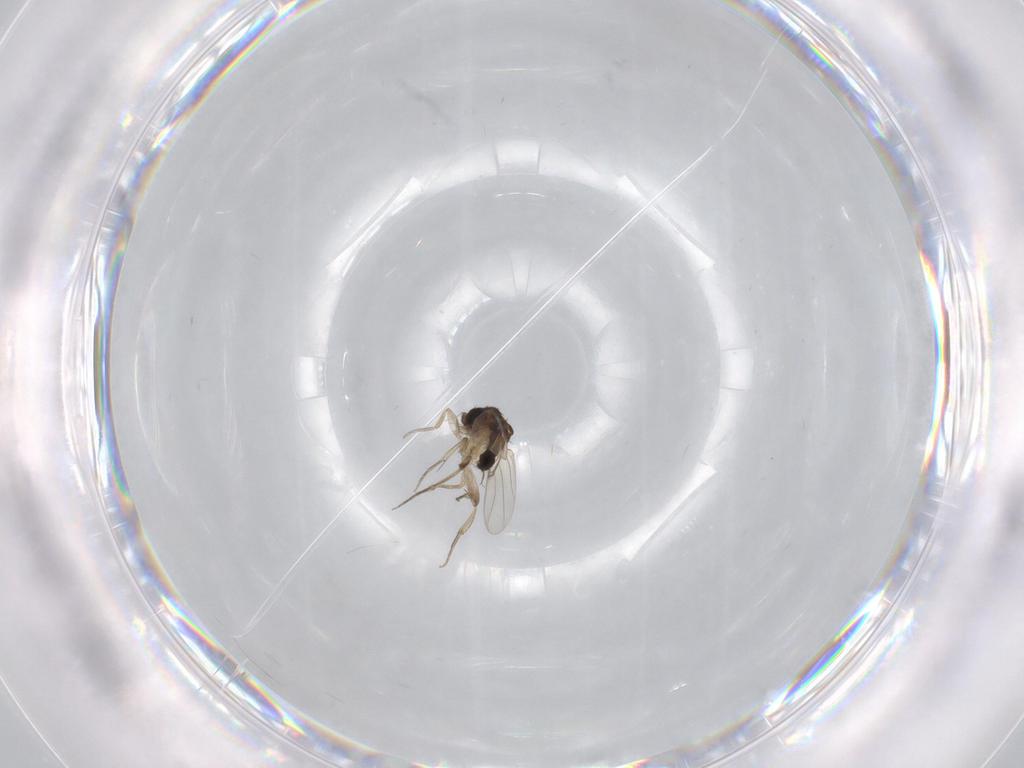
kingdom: Animalia
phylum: Arthropoda
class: Insecta
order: Diptera
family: Phoridae
